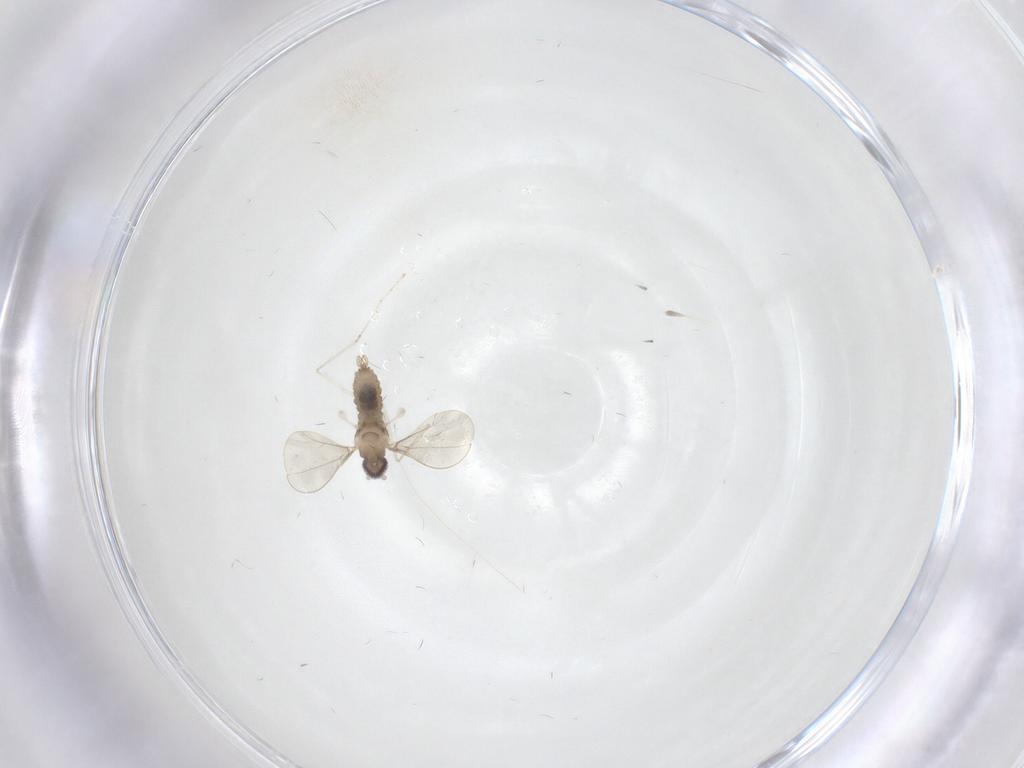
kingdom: Animalia
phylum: Arthropoda
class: Insecta
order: Diptera
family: Cecidomyiidae
